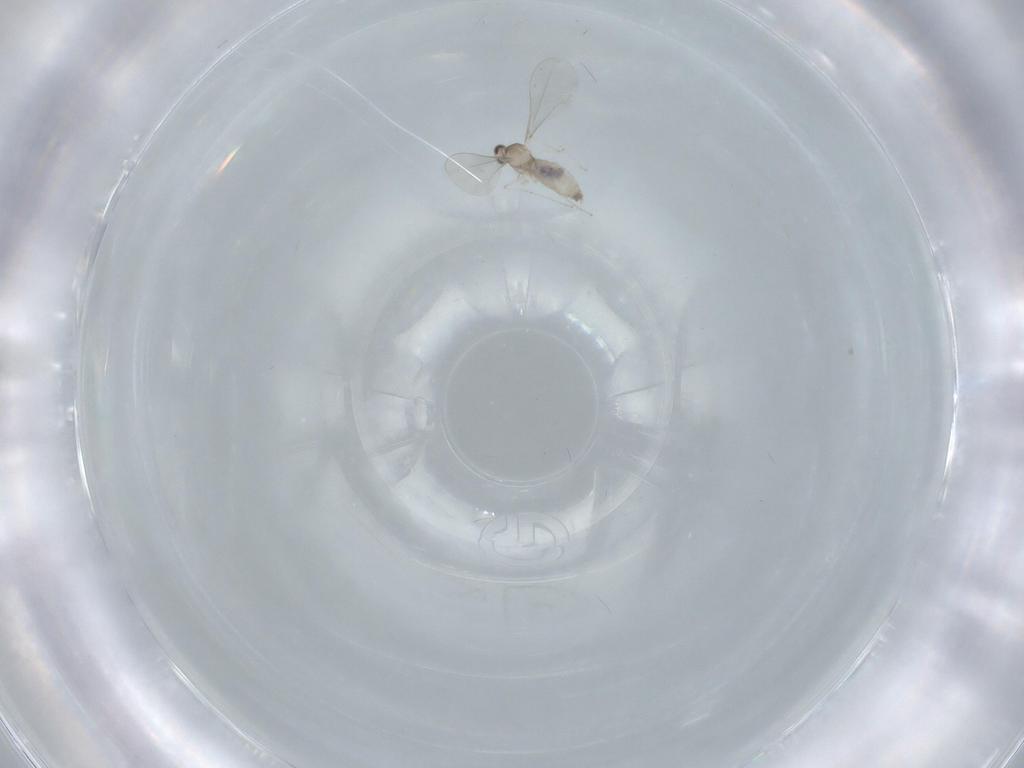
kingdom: Animalia
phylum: Arthropoda
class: Insecta
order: Diptera
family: Cecidomyiidae
